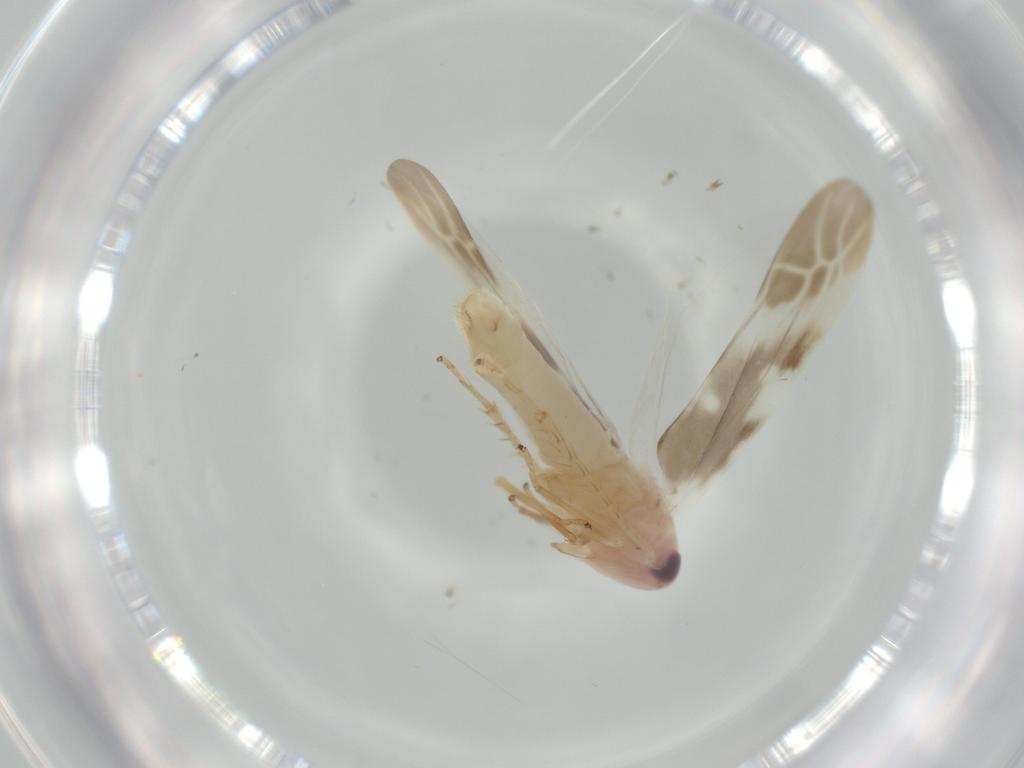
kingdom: Animalia
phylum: Arthropoda
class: Insecta
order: Hemiptera
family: Cicadellidae
